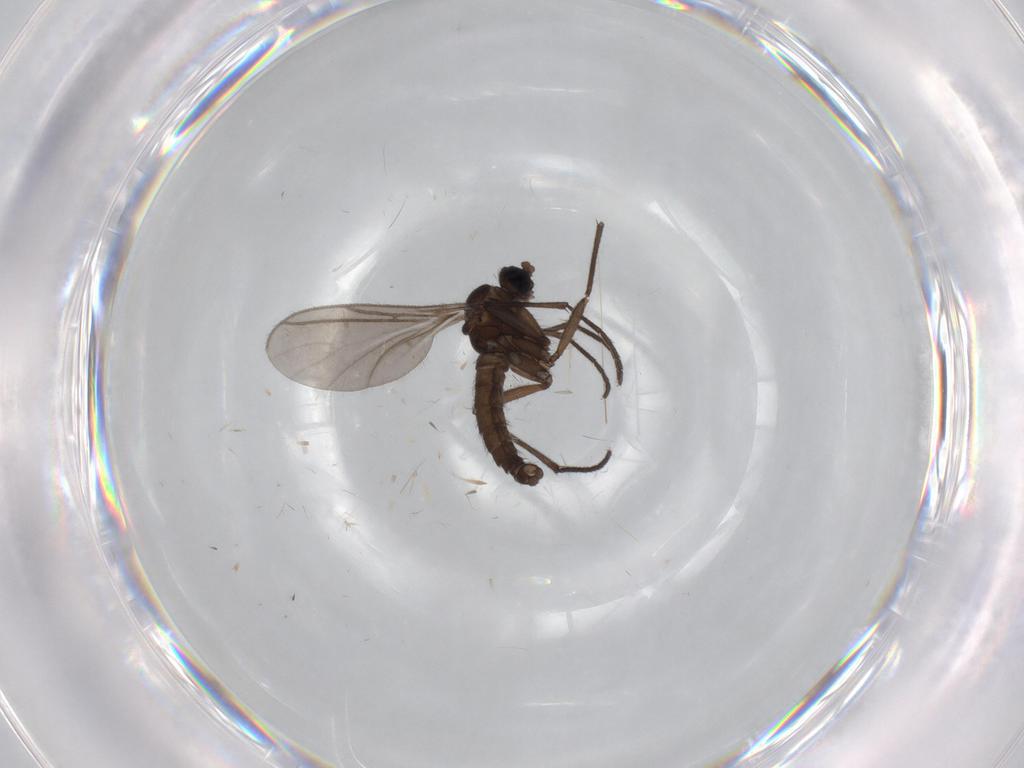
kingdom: Animalia
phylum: Arthropoda
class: Insecta
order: Diptera
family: Sciaridae
